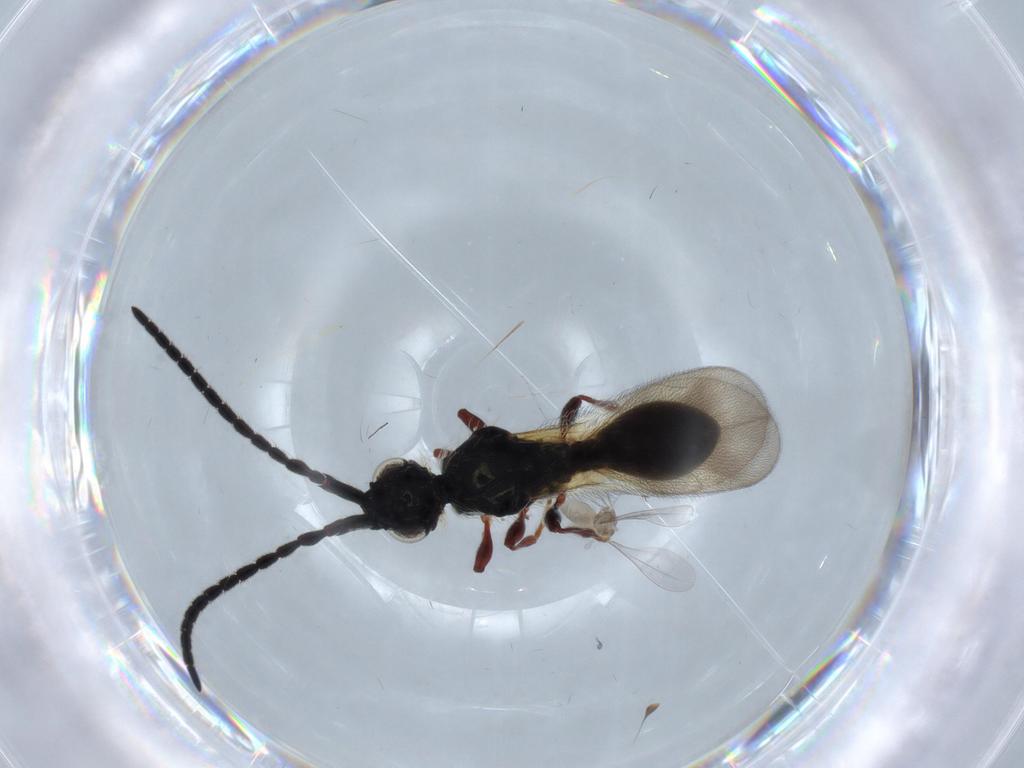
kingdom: Animalia
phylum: Arthropoda
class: Insecta
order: Hymenoptera
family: Diapriidae
